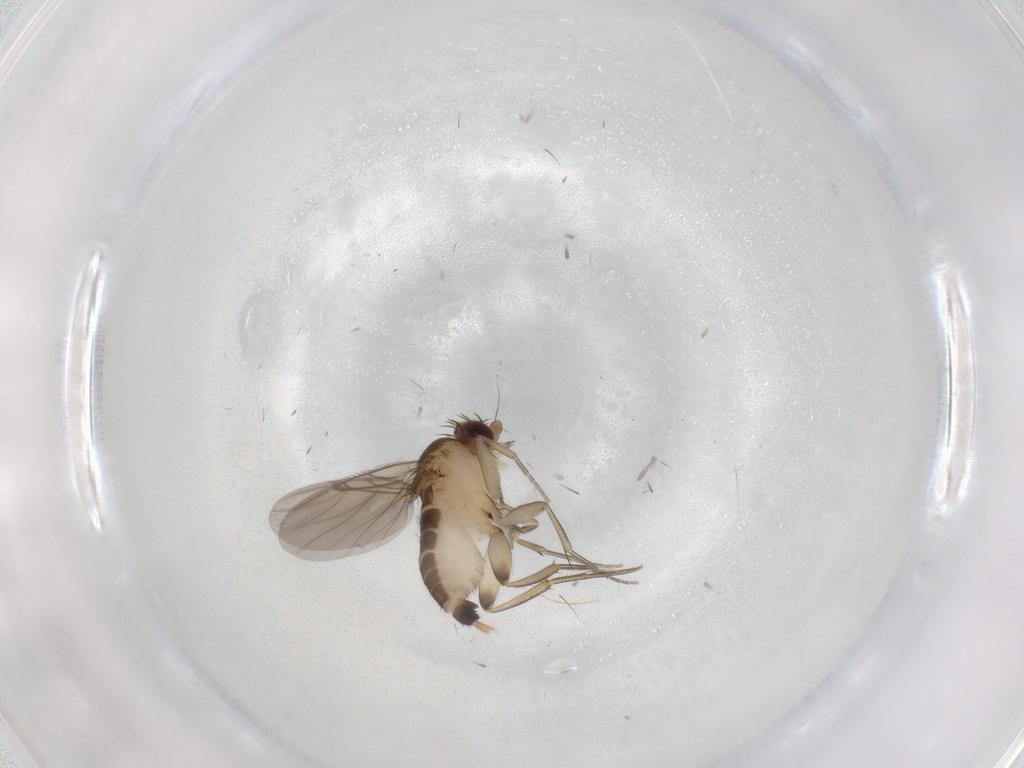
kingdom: Animalia
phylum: Arthropoda
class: Insecta
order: Diptera
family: Phoridae
